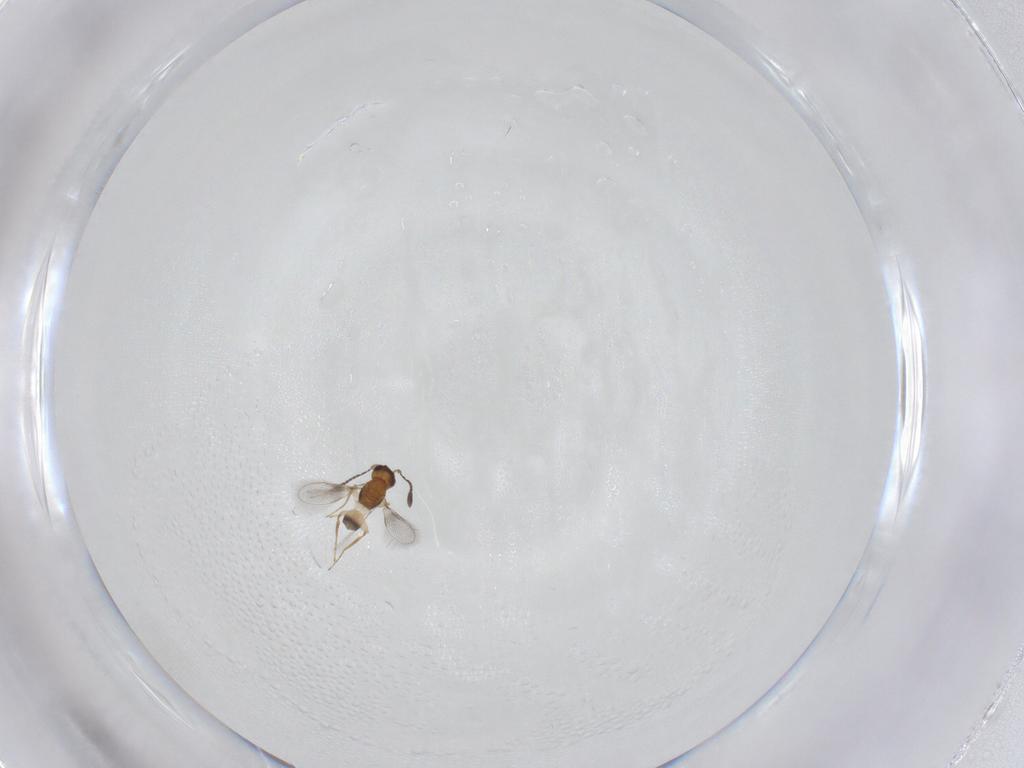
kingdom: Animalia
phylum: Arthropoda
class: Insecta
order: Hymenoptera
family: Mymaridae
